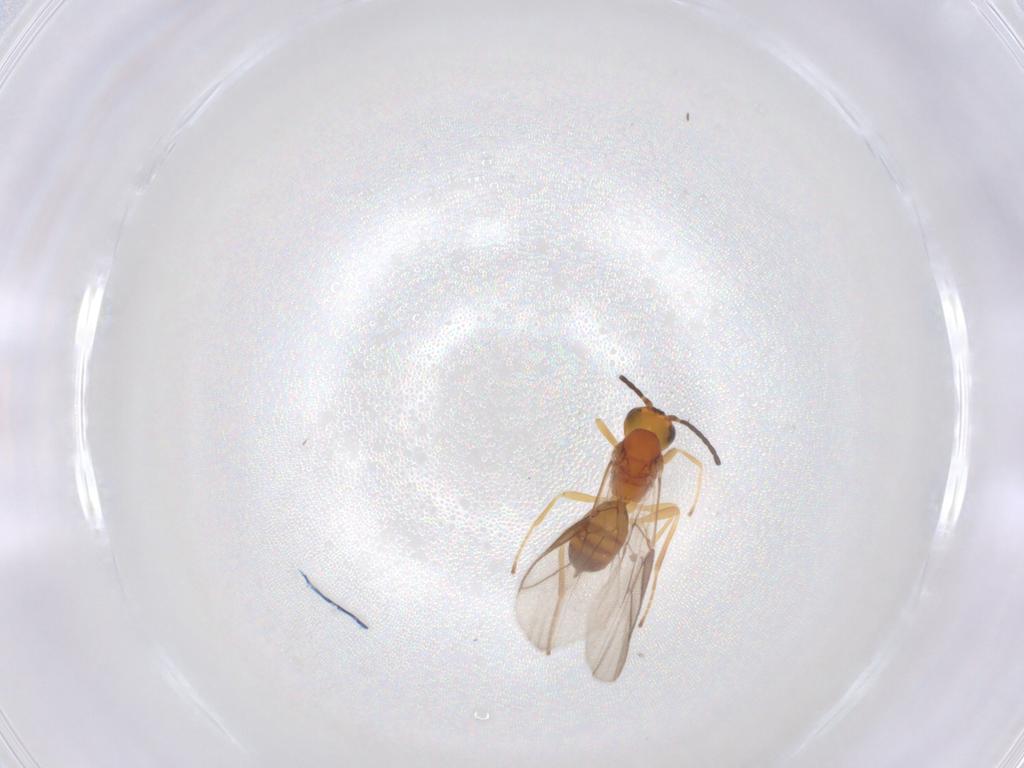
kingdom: Animalia
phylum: Arthropoda
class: Insecta
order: Hymenoptera
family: Braconidae
